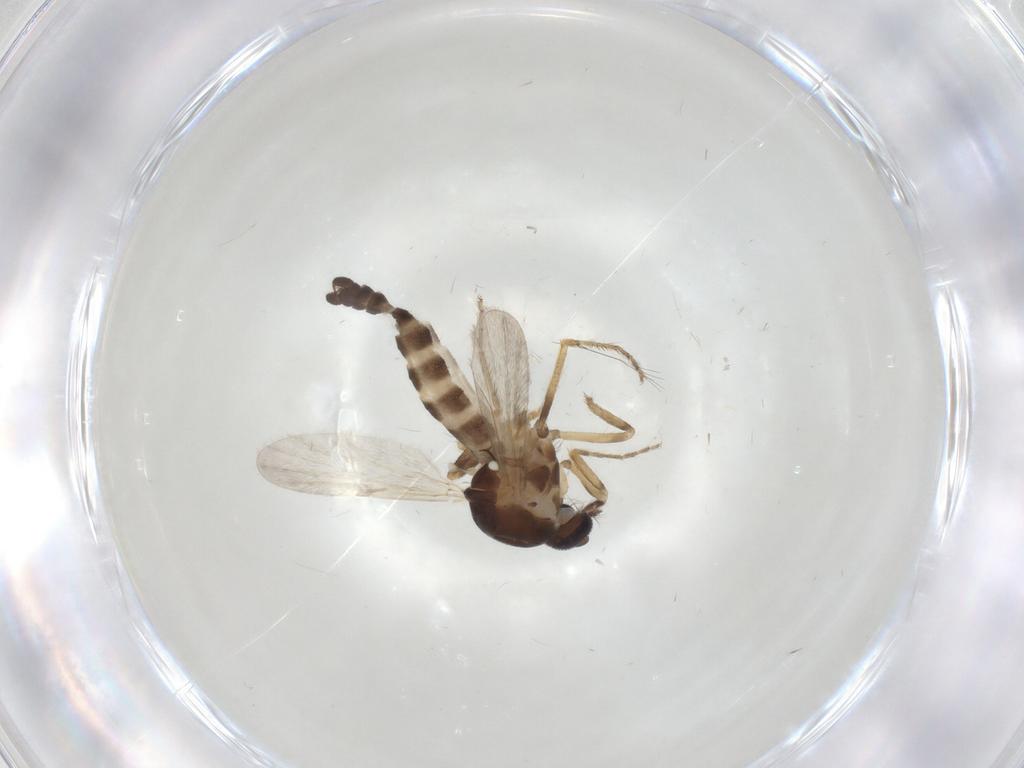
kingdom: Animalia
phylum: Arthropoda
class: Insecta
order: Diptera
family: Ceratopogonidae
